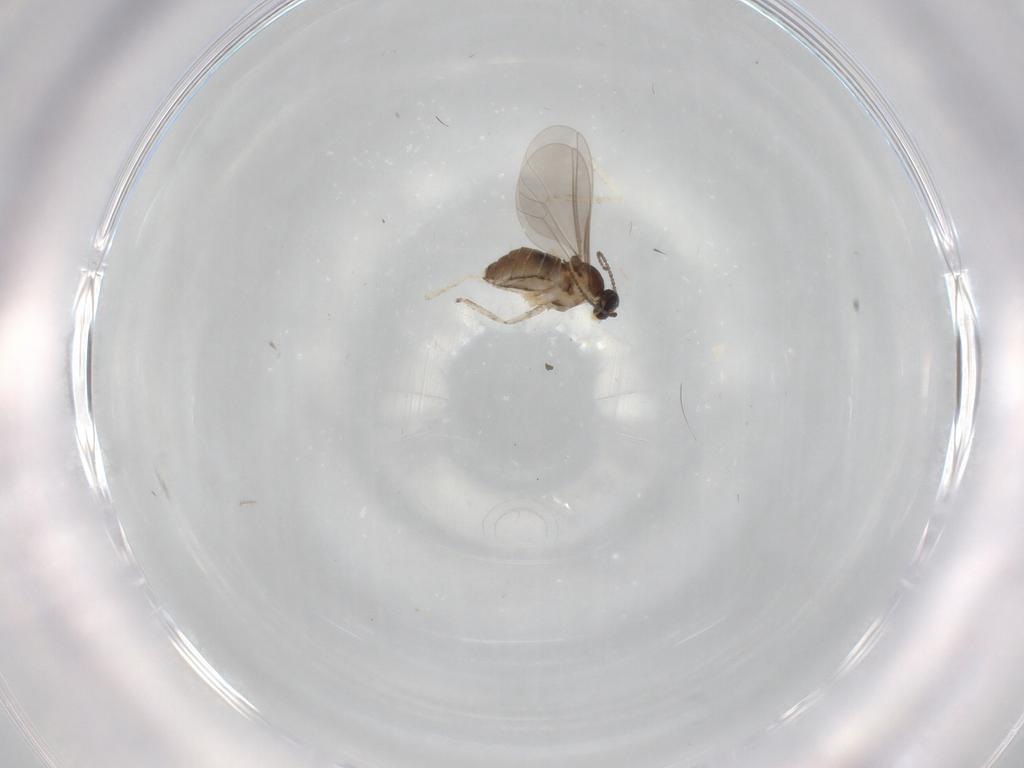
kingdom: Animalia
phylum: Arthropoda
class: Insecta
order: Diptera
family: Cecidomyiidae
